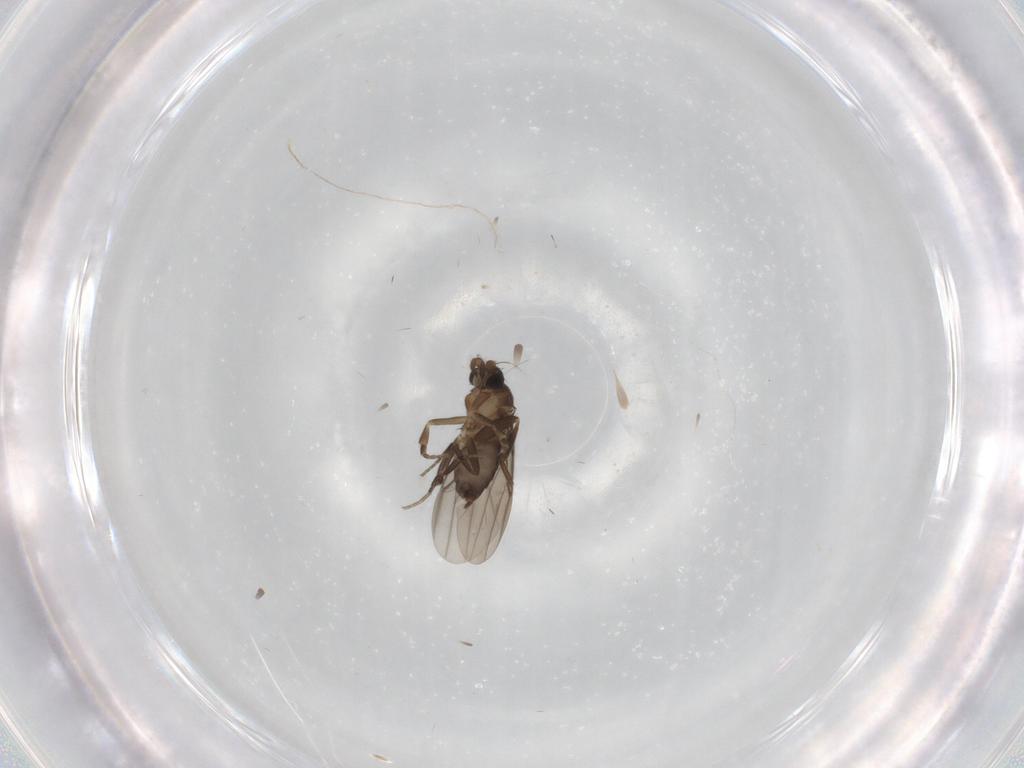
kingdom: Animalia
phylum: Arthropoda
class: Insecta
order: Diptera
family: Phoridae
